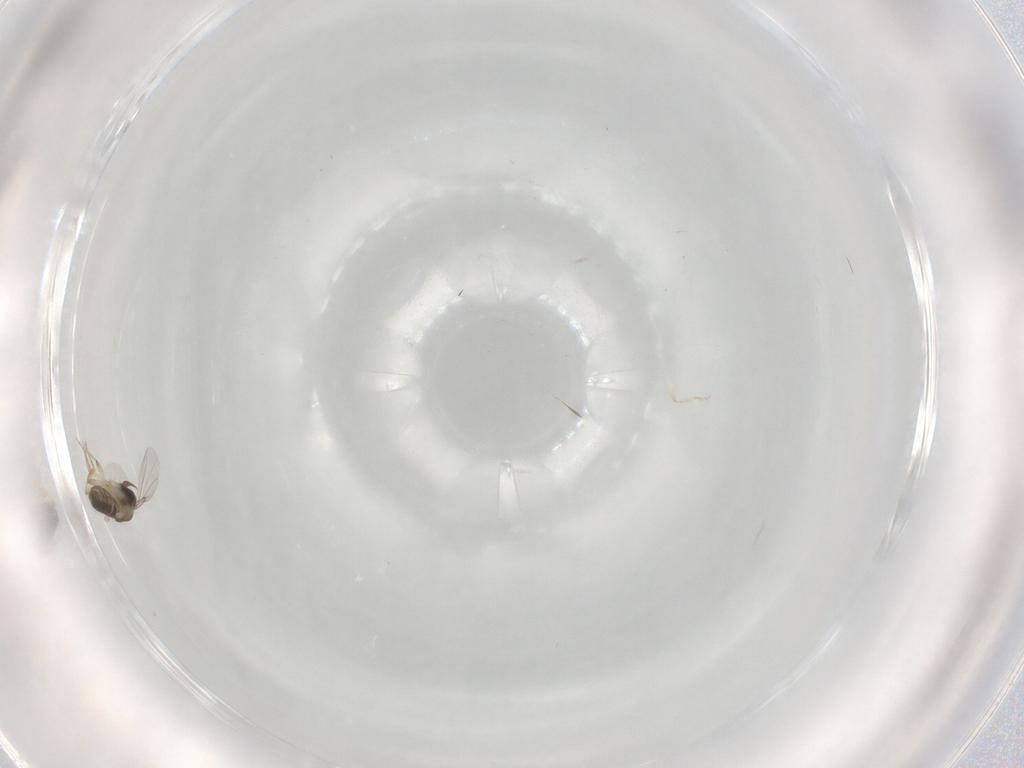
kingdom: Animalia
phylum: Arthropoda
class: Insecta
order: Diptera
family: Phoridae
